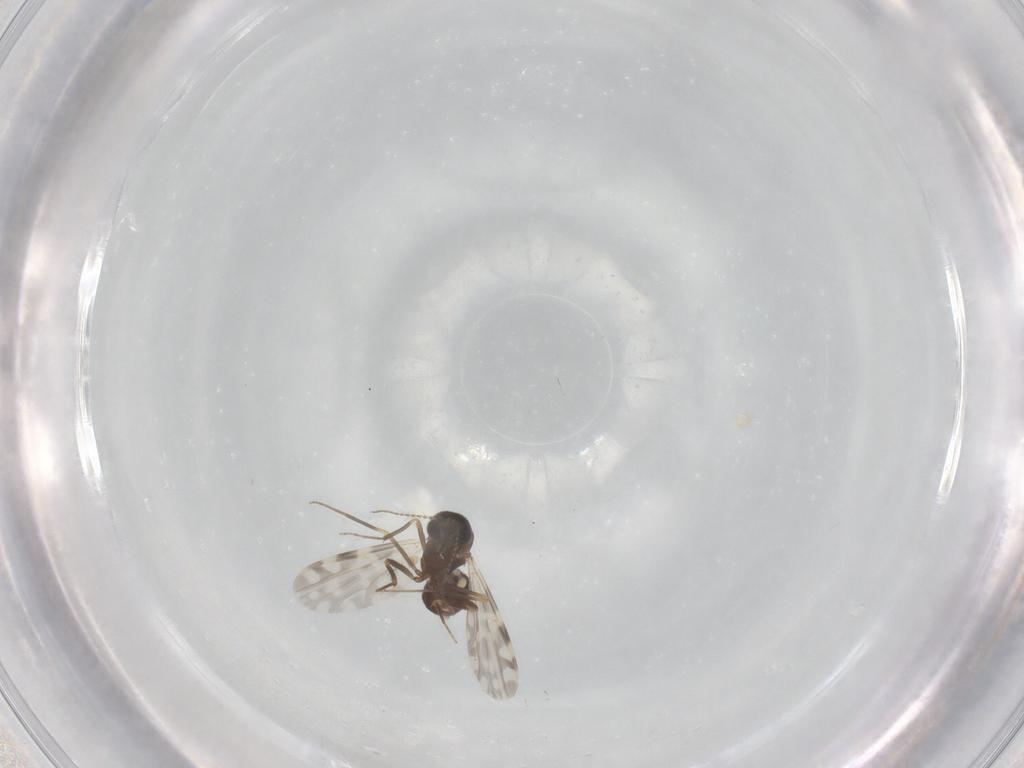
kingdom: Animalia
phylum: Arthropoda
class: Insecta
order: Diptera
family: Ceratopogonidae
